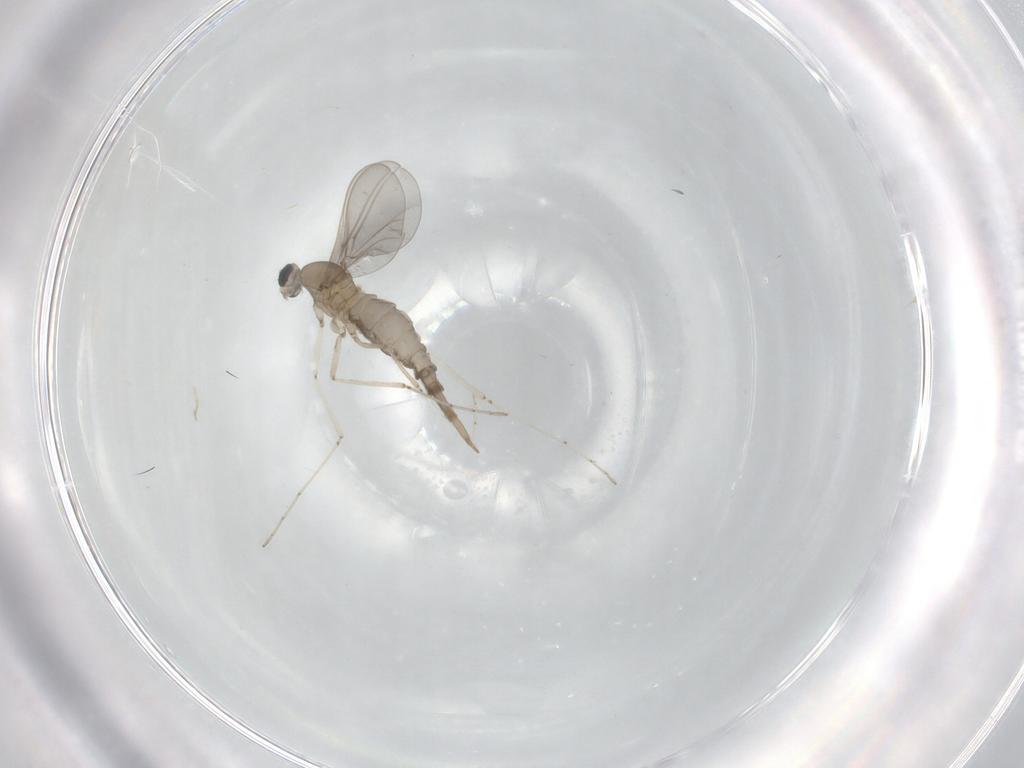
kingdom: Animalia
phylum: Arthropoda
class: Insecta
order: Diptera
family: Cecidomyiidae
